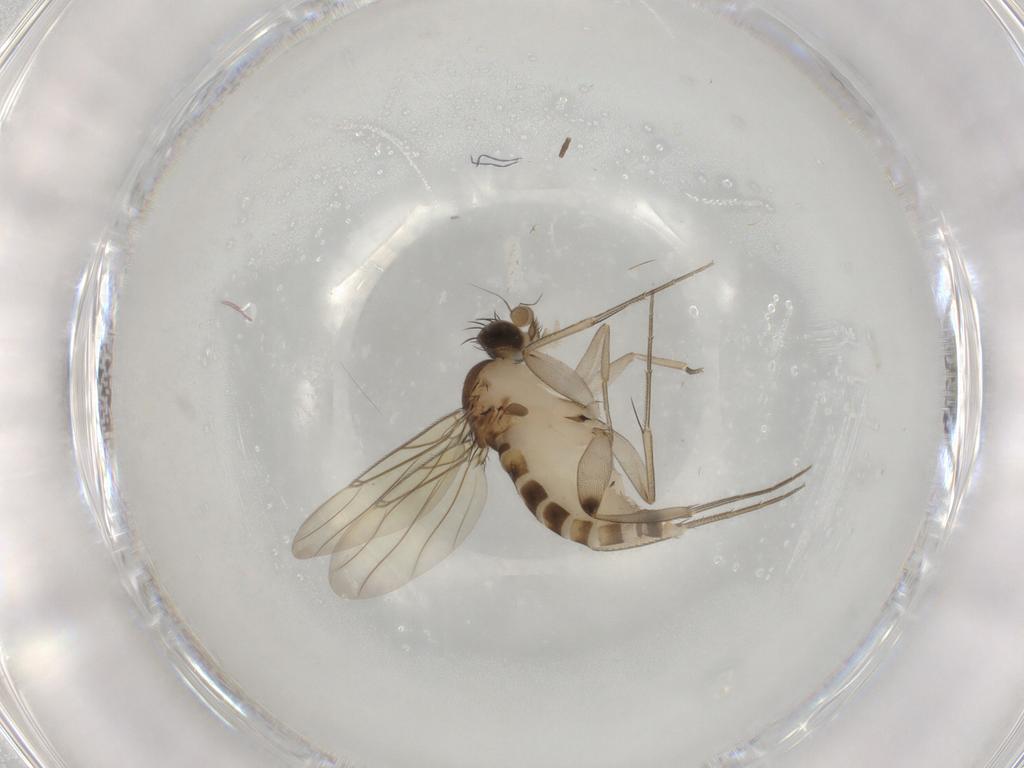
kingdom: Animalia
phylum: Arthropoda
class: Insecta
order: Diptera
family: Phoridae
